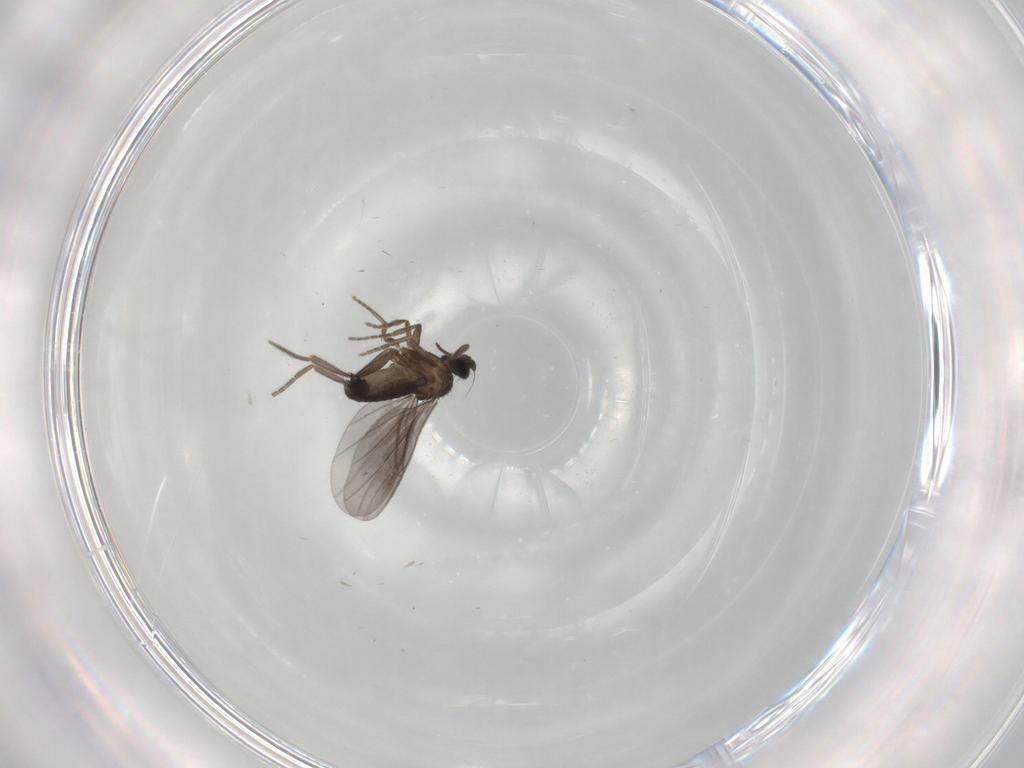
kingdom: Animalia
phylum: Arthropoda
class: Insecta
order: Diptera
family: Phoridae
